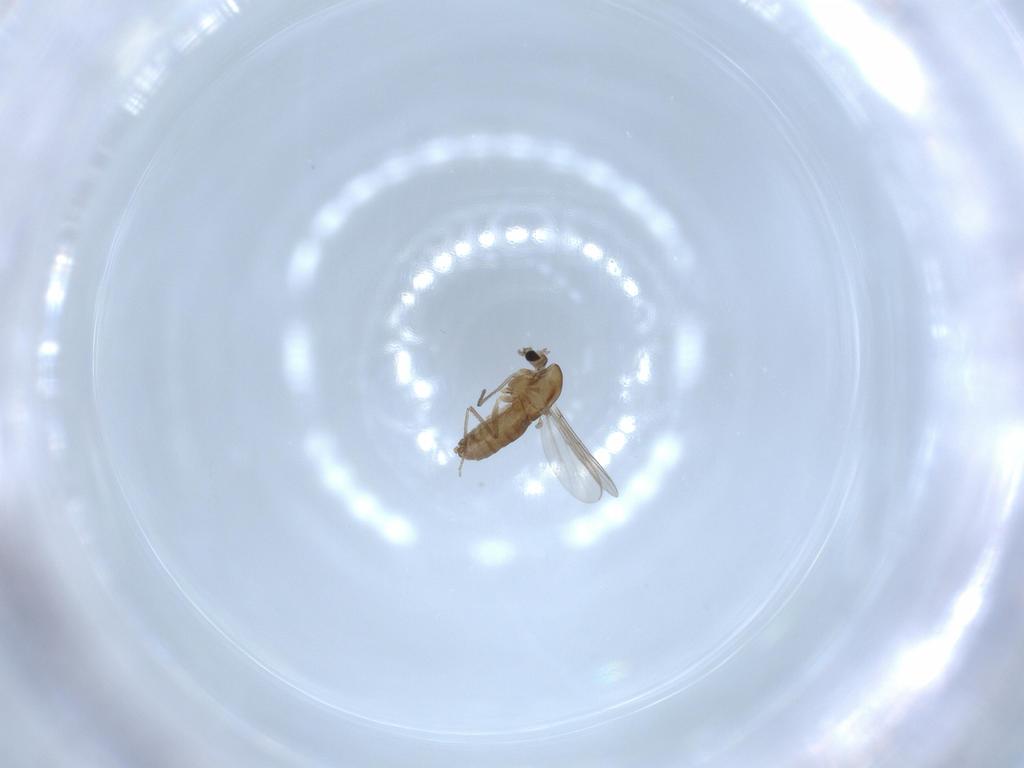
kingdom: Animalia
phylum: Arthropoda
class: Insecta
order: Diptera
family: Chironomidae
